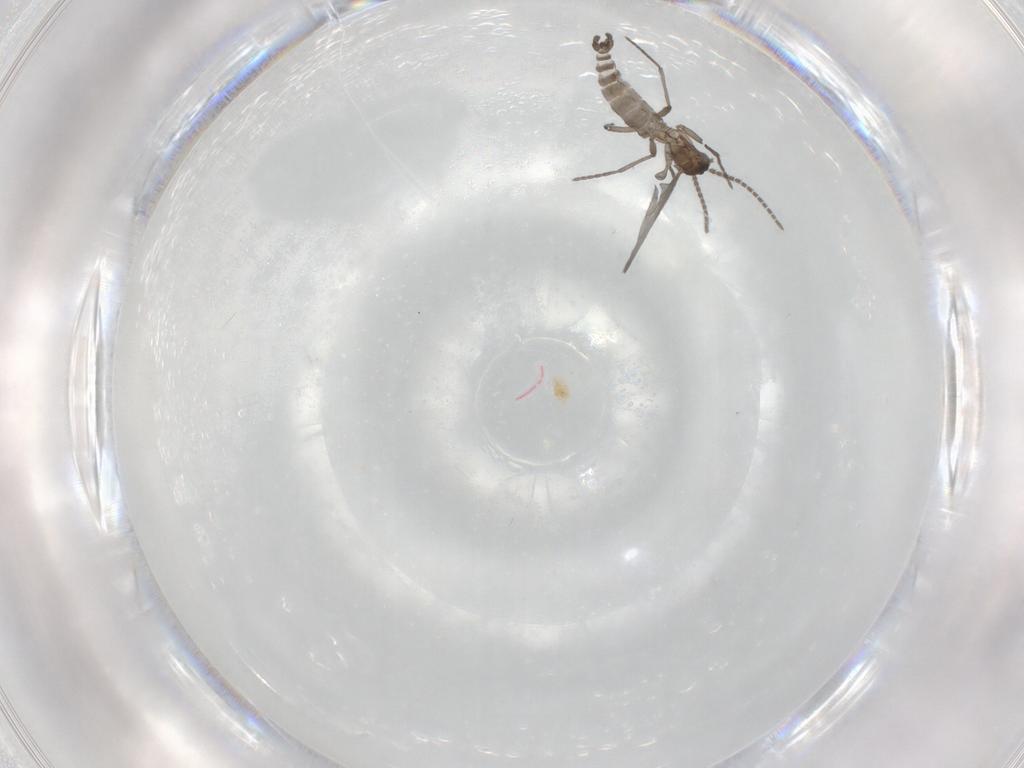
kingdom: Animalia
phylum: Arthropoda
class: Insecta
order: Diptera
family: Sciaridae
